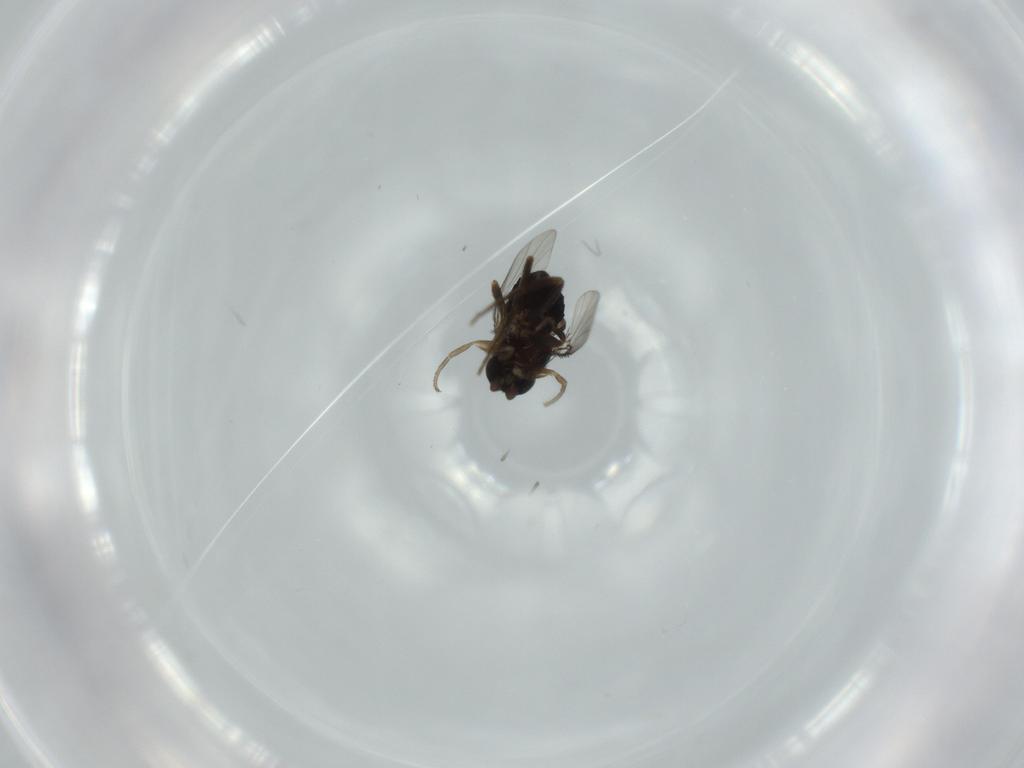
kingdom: Animalia
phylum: Arthropoda
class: Insecta
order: Diptera
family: Phoridae
